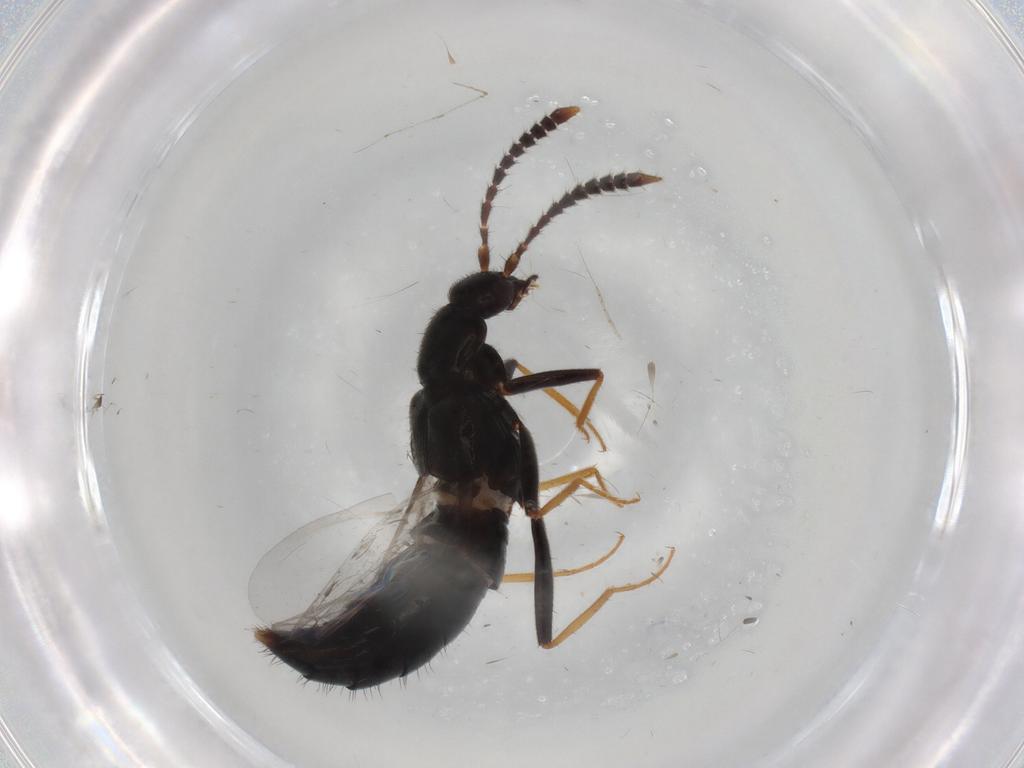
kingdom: Animalia
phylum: Arthropoda
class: Insecta
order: Coleoptera
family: Staphylinidae
